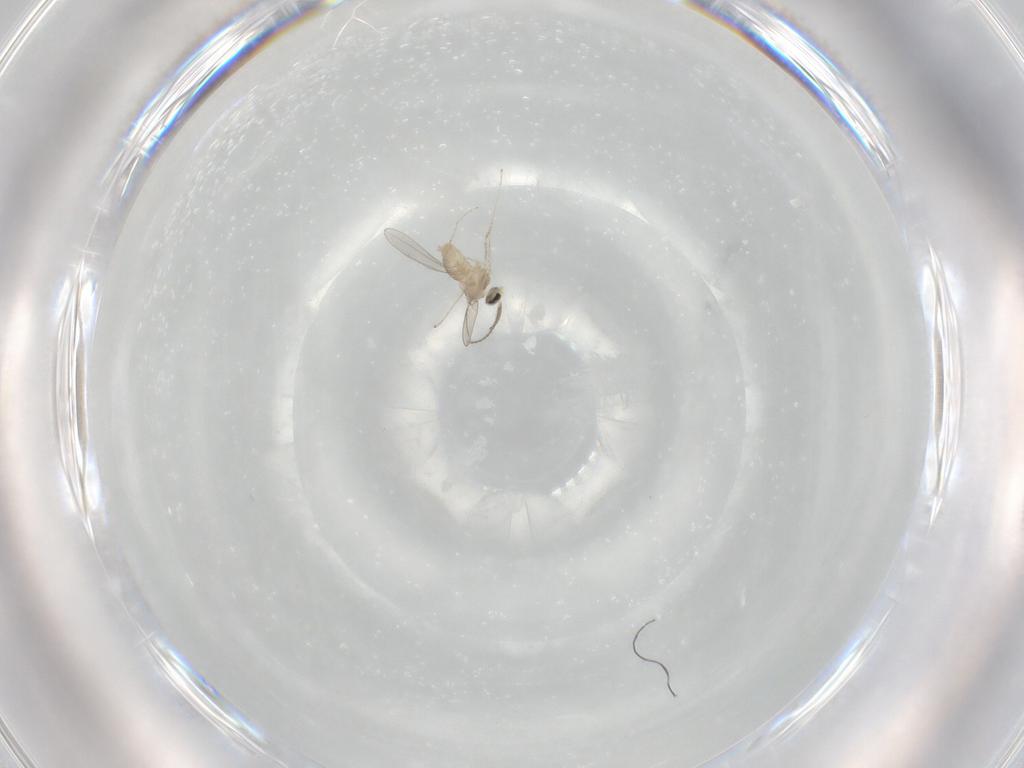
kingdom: Animalia
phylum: Arthropoda
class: Insecta
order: Diptera
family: Cecidomyiidae
